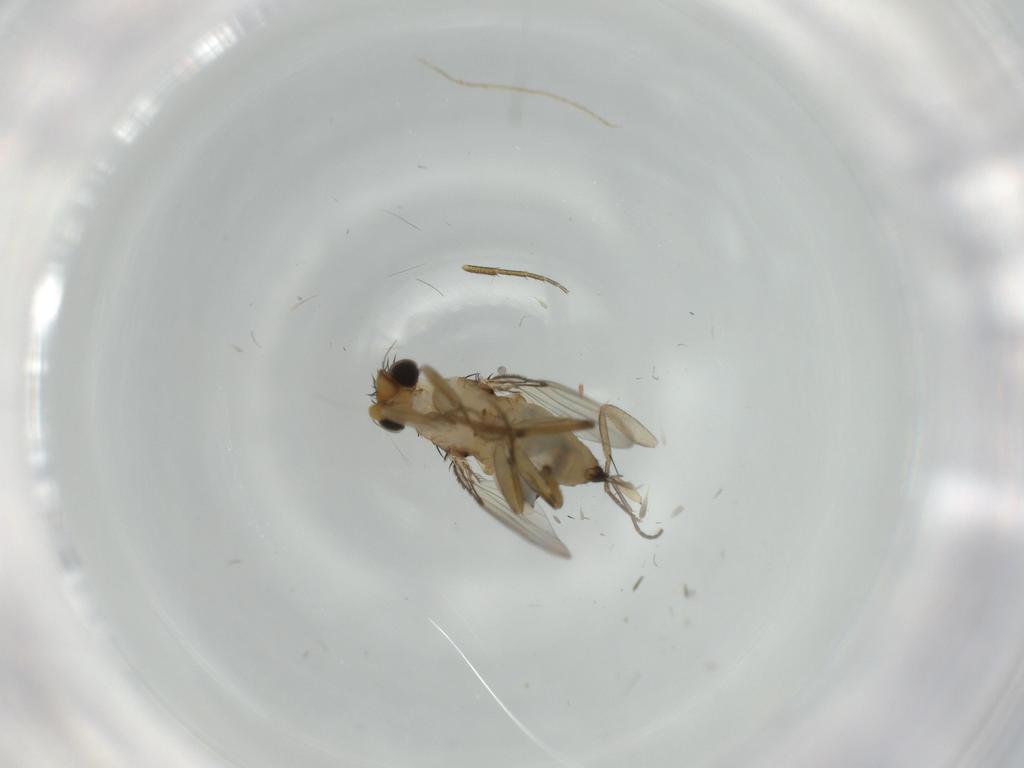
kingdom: Animalia
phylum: Arthropoda
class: Insecta
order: Diptera
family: Phoridae
